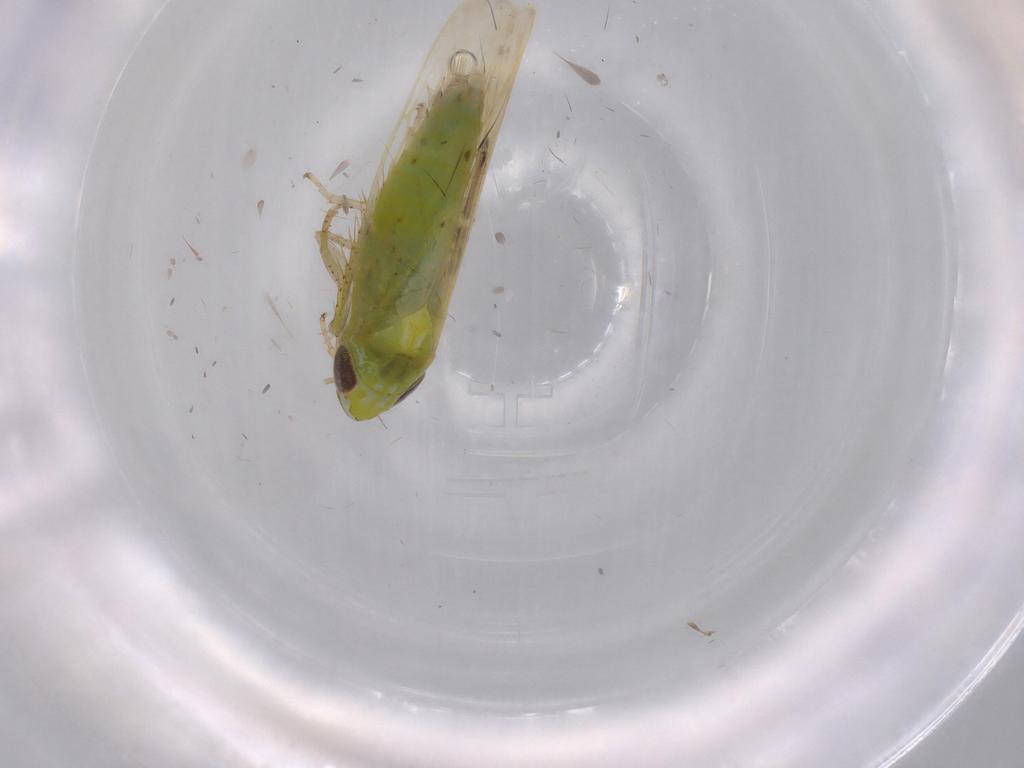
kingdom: Animalia
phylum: Arthropoda
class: Insecta
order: Hemiptera
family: Cicadellidae
